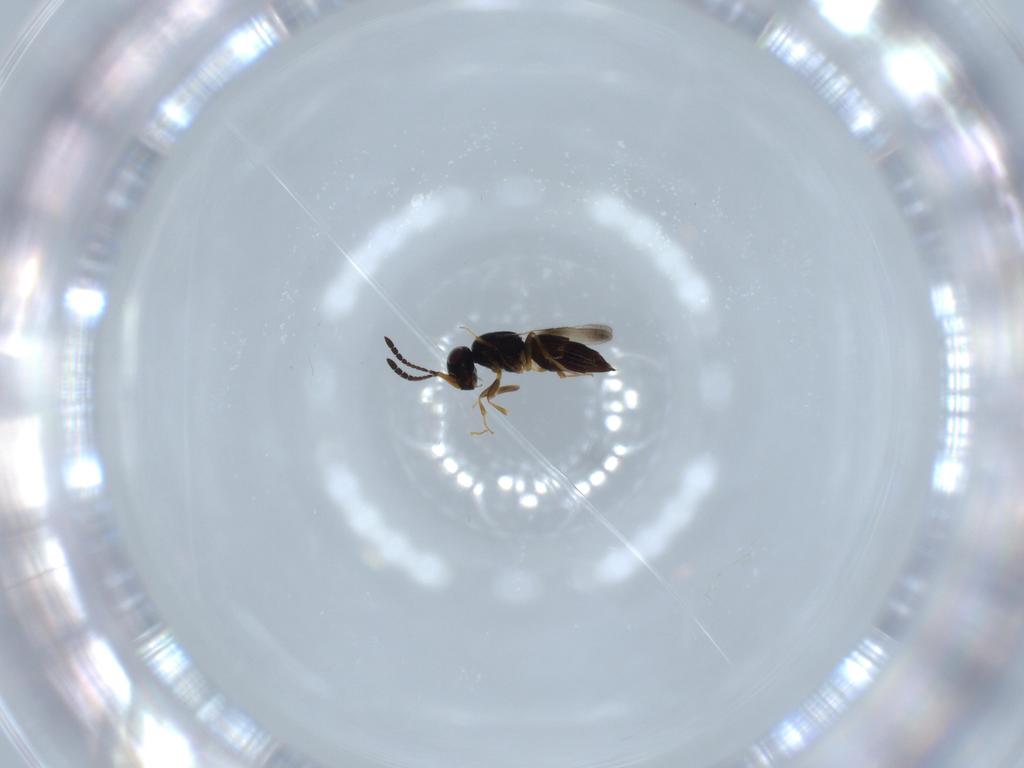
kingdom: Animalia
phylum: Arthropoda
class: Insecta
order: Hymenoptera
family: Ceraphronidae
